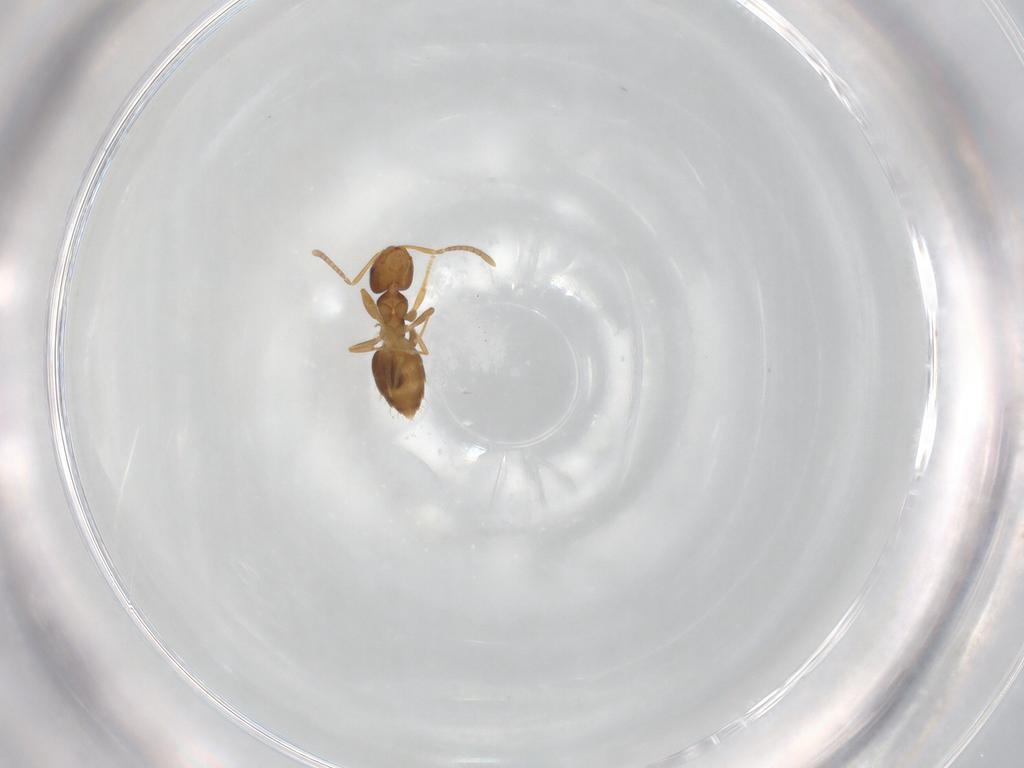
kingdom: Animalia
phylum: Arthropoda
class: Insecta
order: Hymenoptera
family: Formicidae
